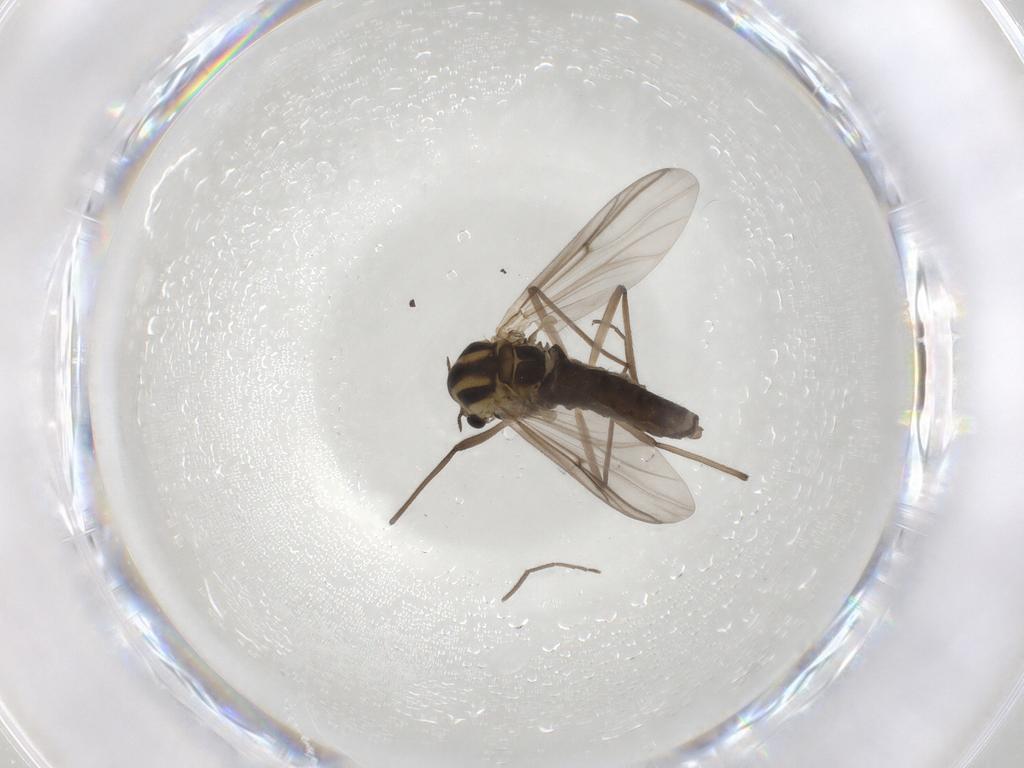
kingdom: Animalia
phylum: Arthropoda
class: Insecta
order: Diptera
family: Chironomidae
